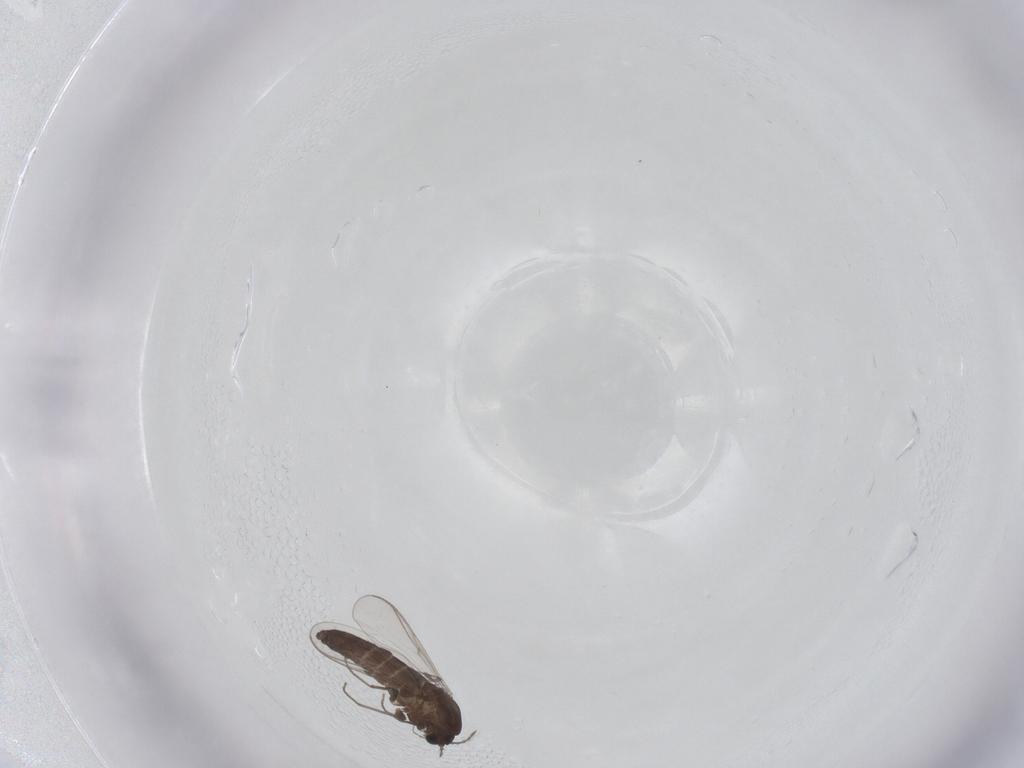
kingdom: Animalia
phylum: Arthropoda
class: Insecta
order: Diptera
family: Chironomidae
